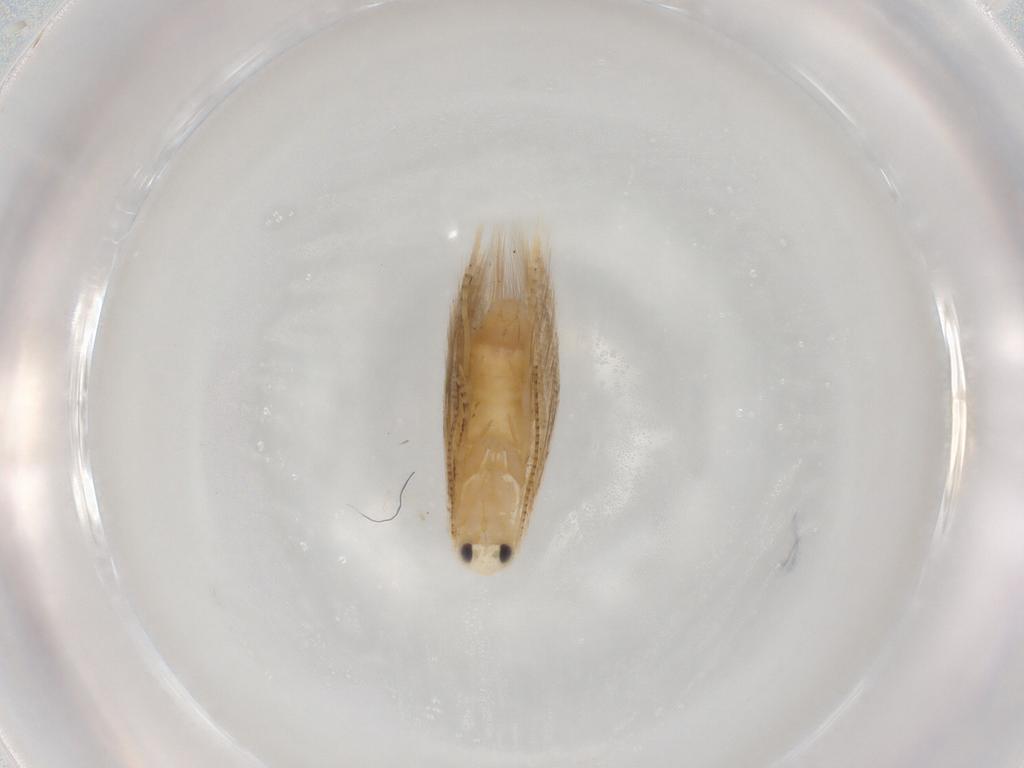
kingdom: Animalia
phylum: Arthropoda
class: Insecta
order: Lepidoptera
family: Bucculatricidae
